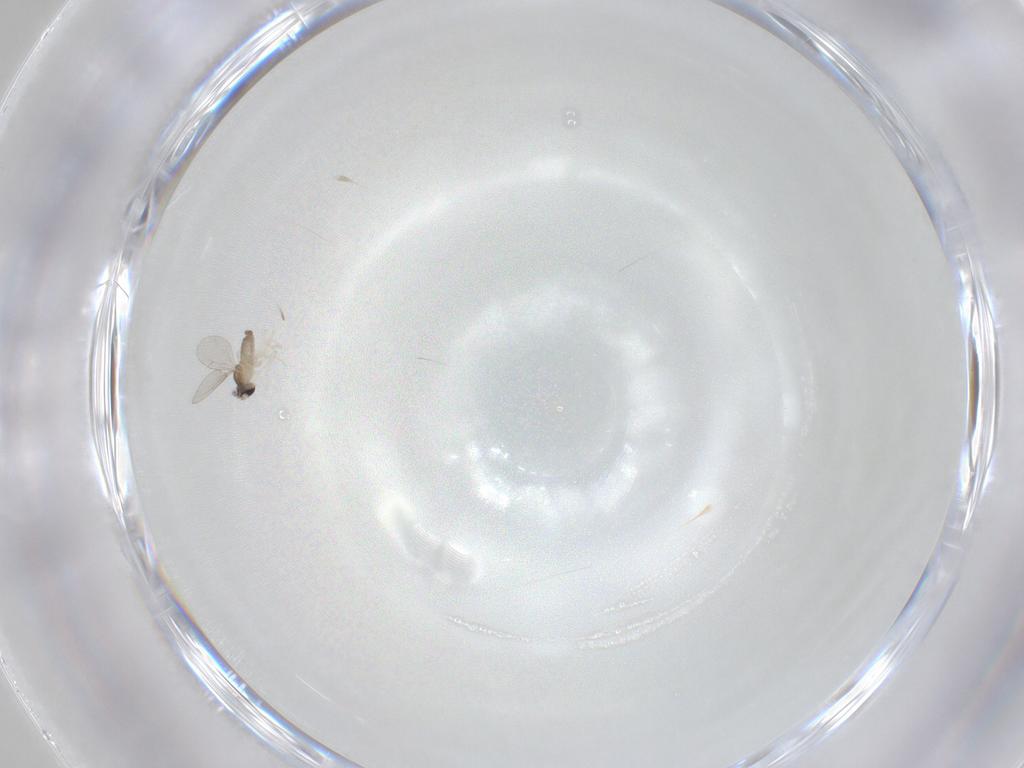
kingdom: Animalia
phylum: Arthropoda
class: Insecta
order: Diptera
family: Cecidomyiidae
